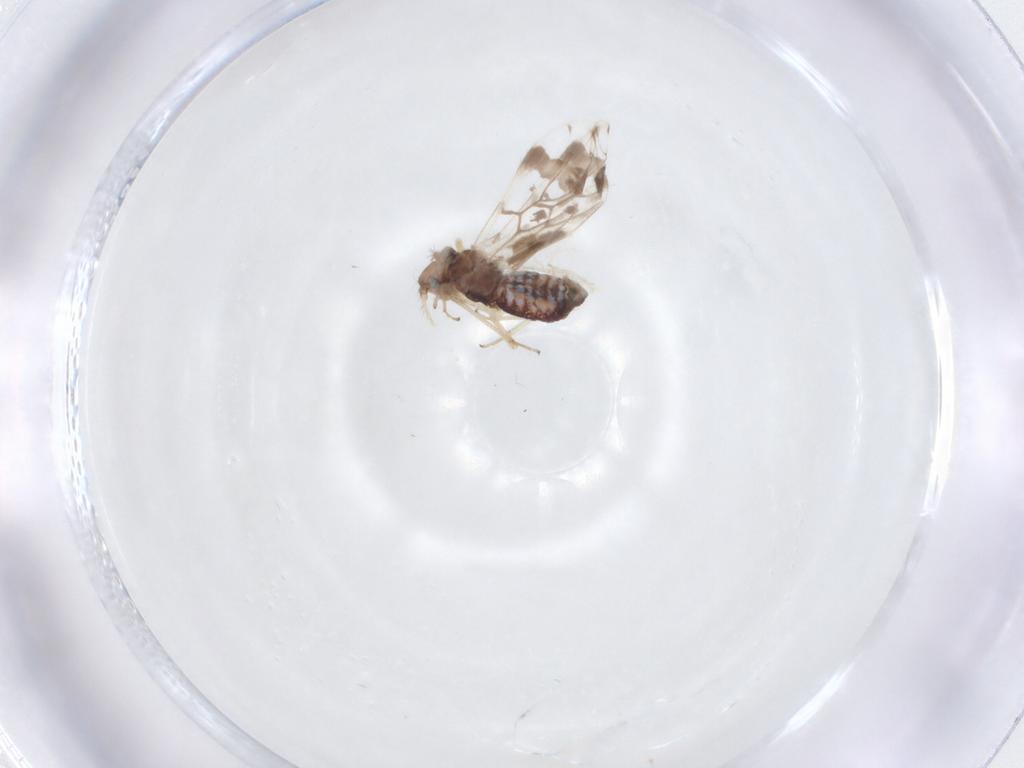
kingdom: Animalia
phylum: Arthropoda
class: Insecta
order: Psocodea
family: Pseudocaeciliidae
